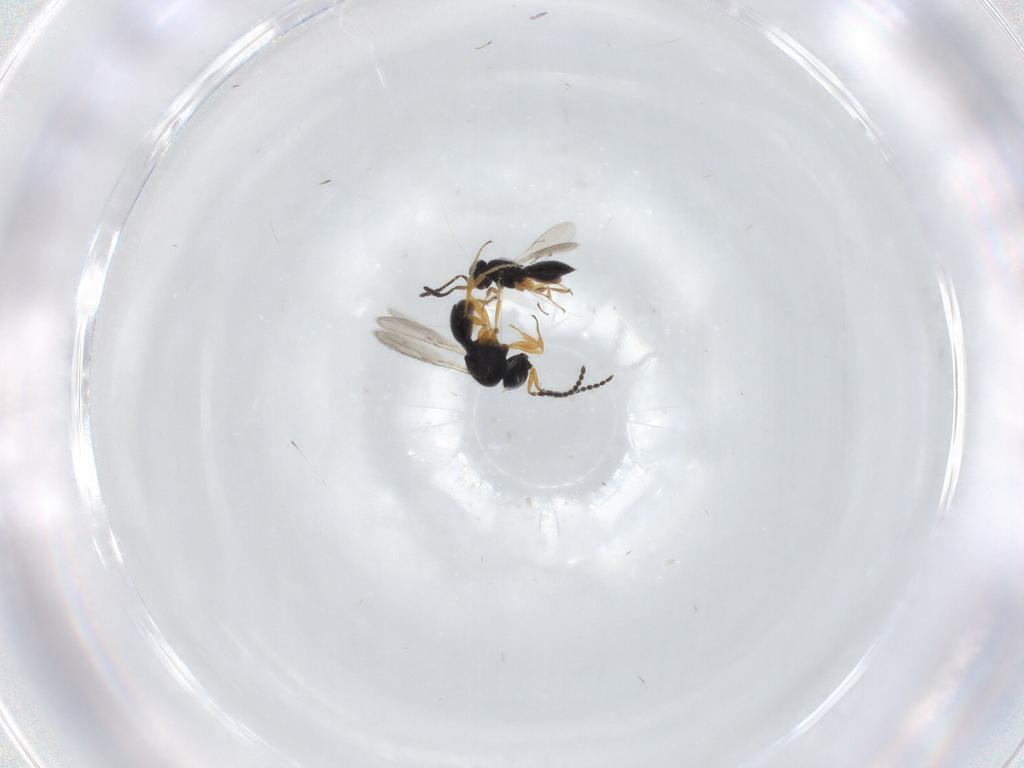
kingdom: Animalia
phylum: Arthropoda
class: Insecta
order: Hymenoptera
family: Scelionidae
